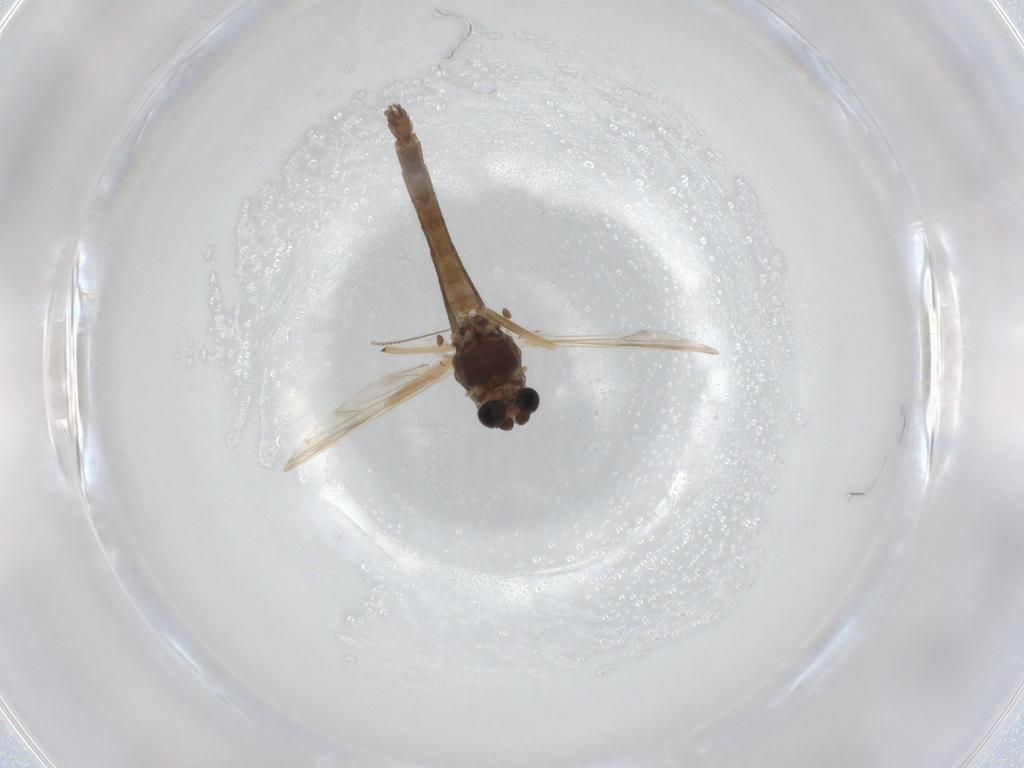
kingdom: Animalia
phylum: Arthropoda
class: Insecta
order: Diptera
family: Chironomidae
